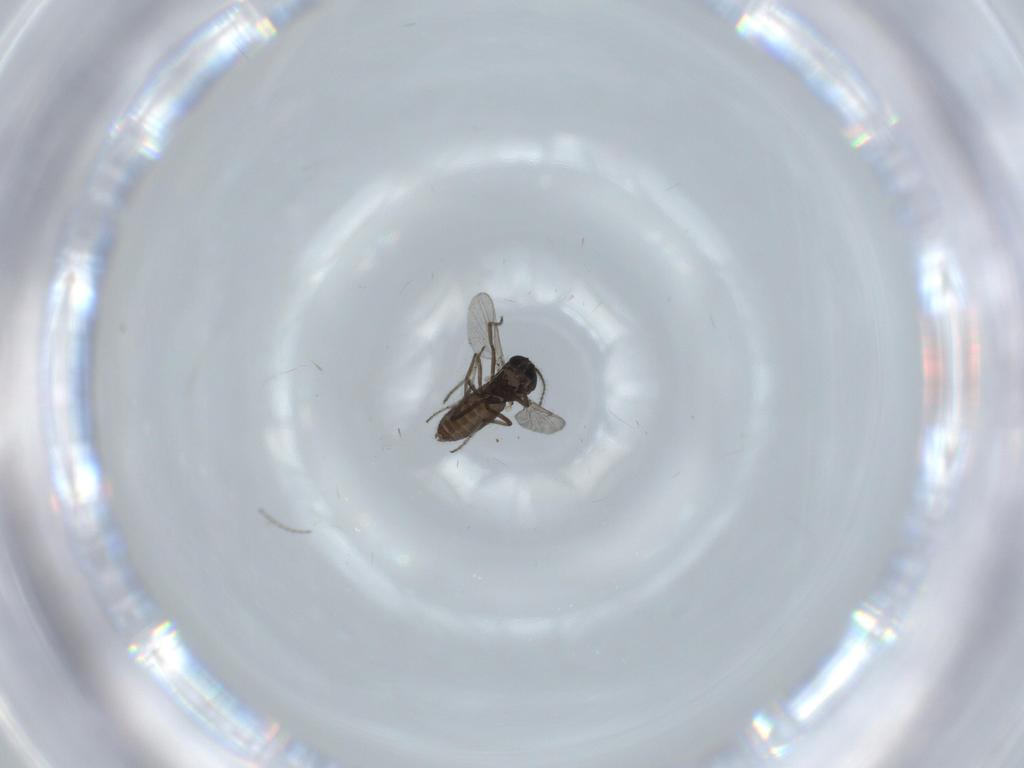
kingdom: Animalia
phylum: Arthropoda
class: Insecta
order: Diptera
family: Ceratopogonidae
